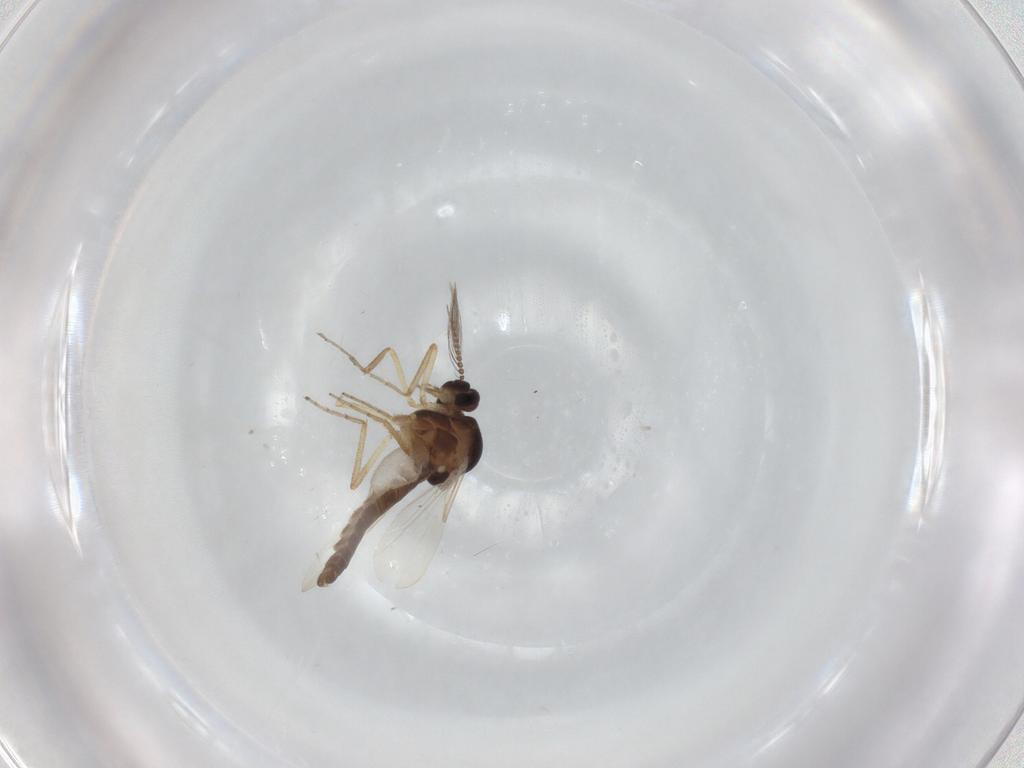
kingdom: Animalia
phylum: Arthropoda
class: Insecta
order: Diptera
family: Ceratopogonidae
